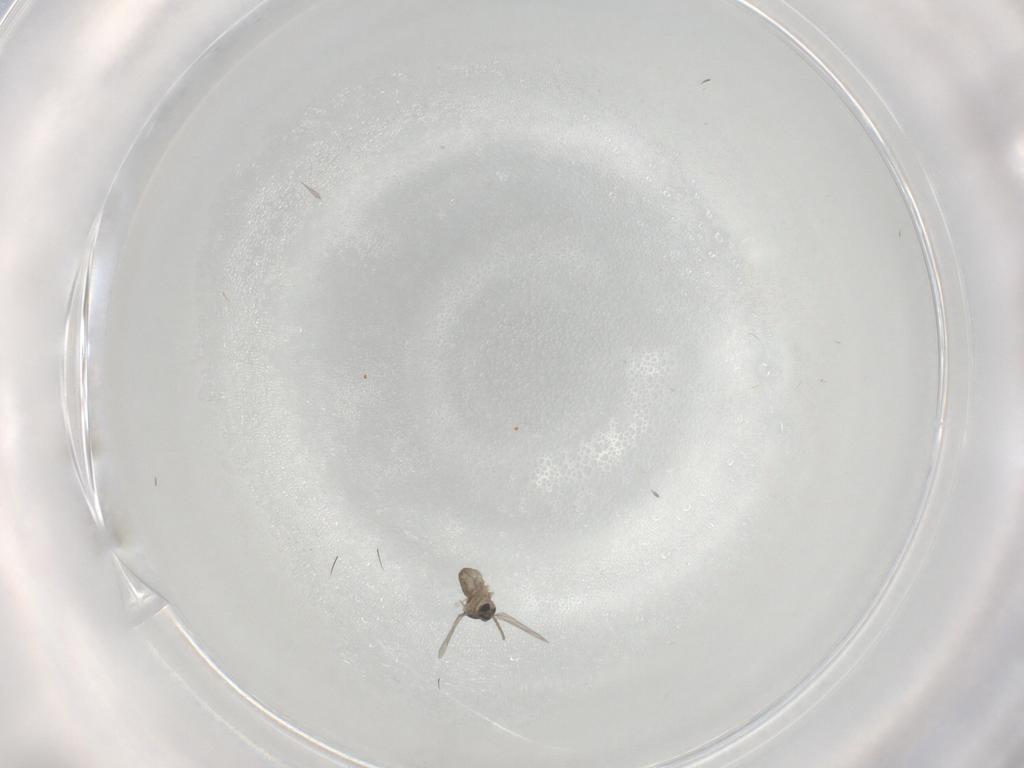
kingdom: Animalia
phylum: Arthropoda
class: Insecta
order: Diptera
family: Cecidomyiidae
